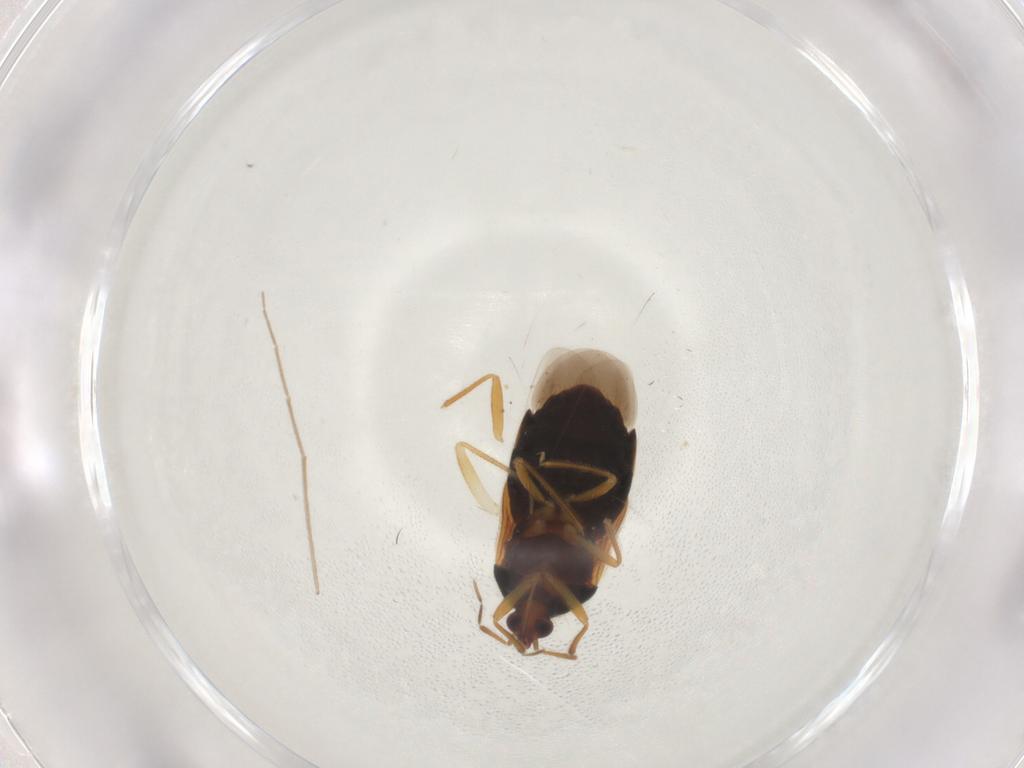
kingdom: Animalia
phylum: Arthropoda
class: Insecta
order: Hemiptera
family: Anthocoridae
